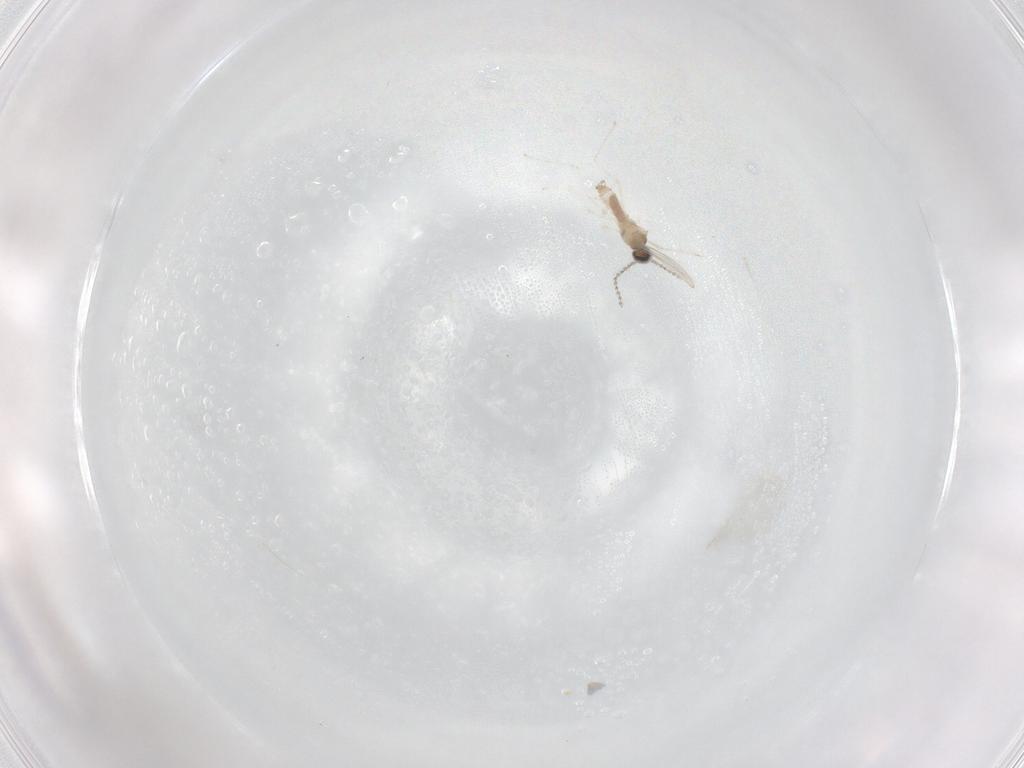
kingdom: Animalia
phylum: Arthropoda
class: Insecta
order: Diptera
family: Cecidomyiidae
